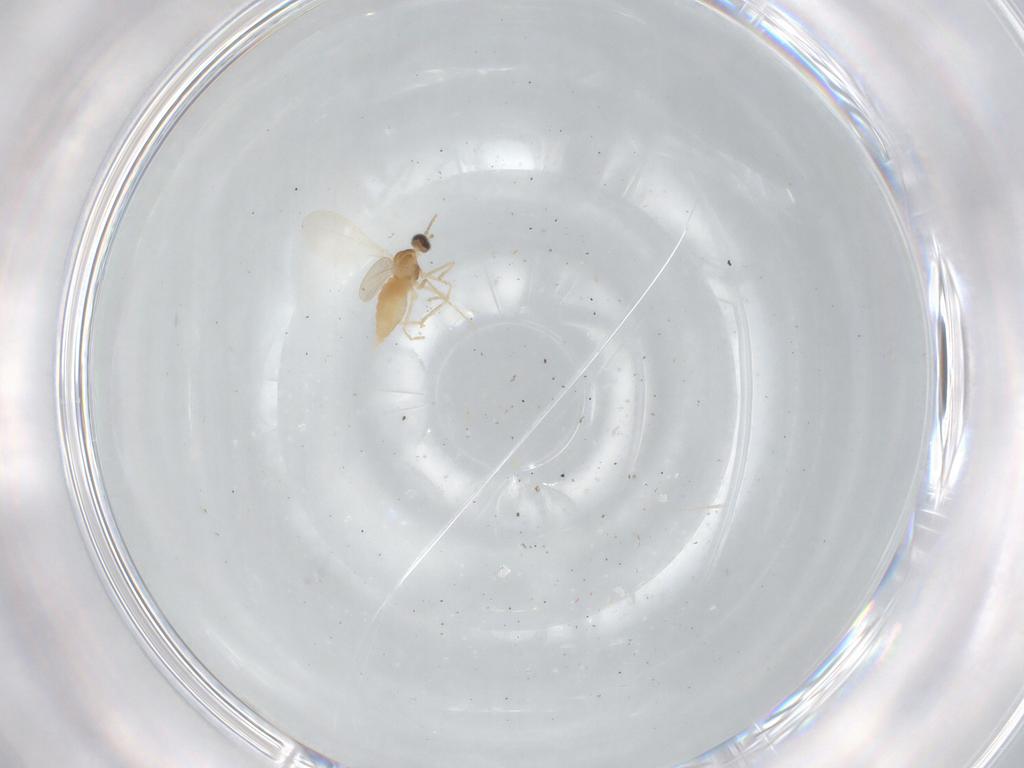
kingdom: Animalia
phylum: Arthropoda
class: Insecta
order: Diptera
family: Cecidomyiidae
